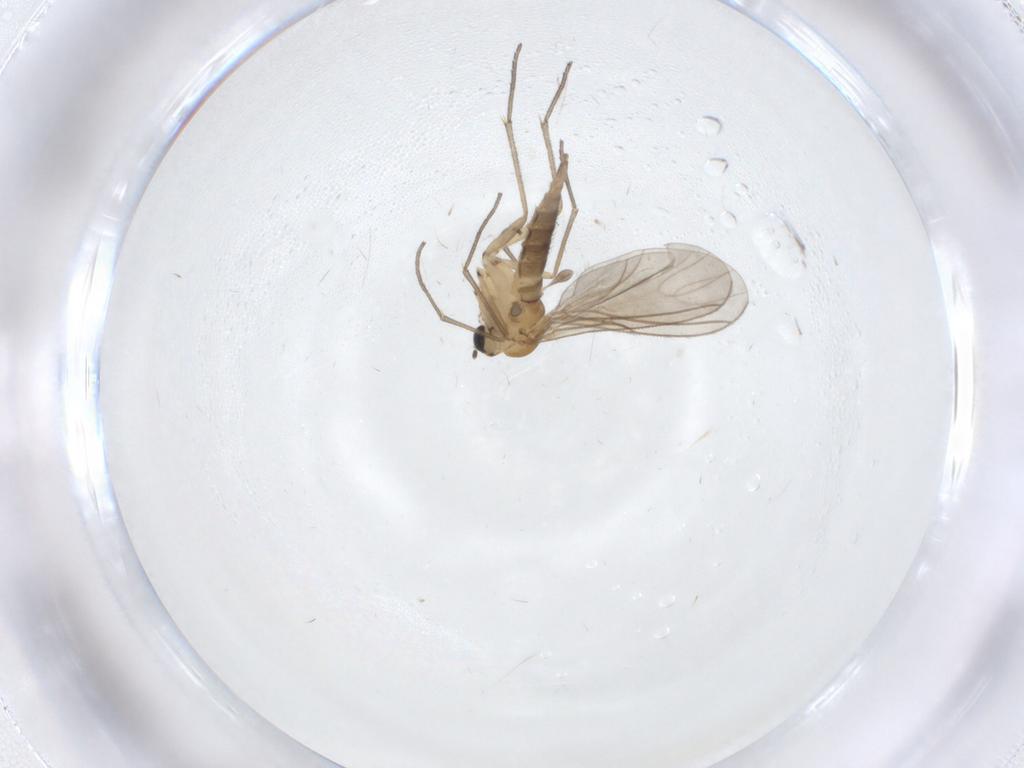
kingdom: Animalia
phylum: Arthropoda
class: Insecta
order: Diptera
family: Sciaridae
